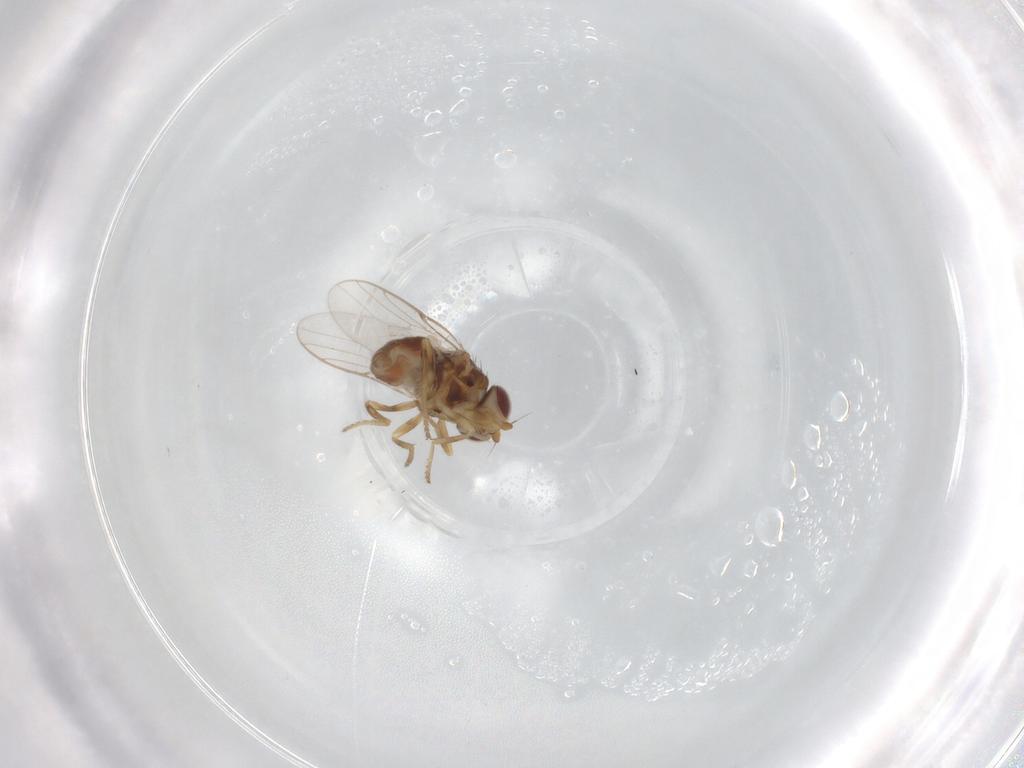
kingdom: Animalia
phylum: Arthropoda
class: Insecta
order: Diptera
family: Chloropidae
